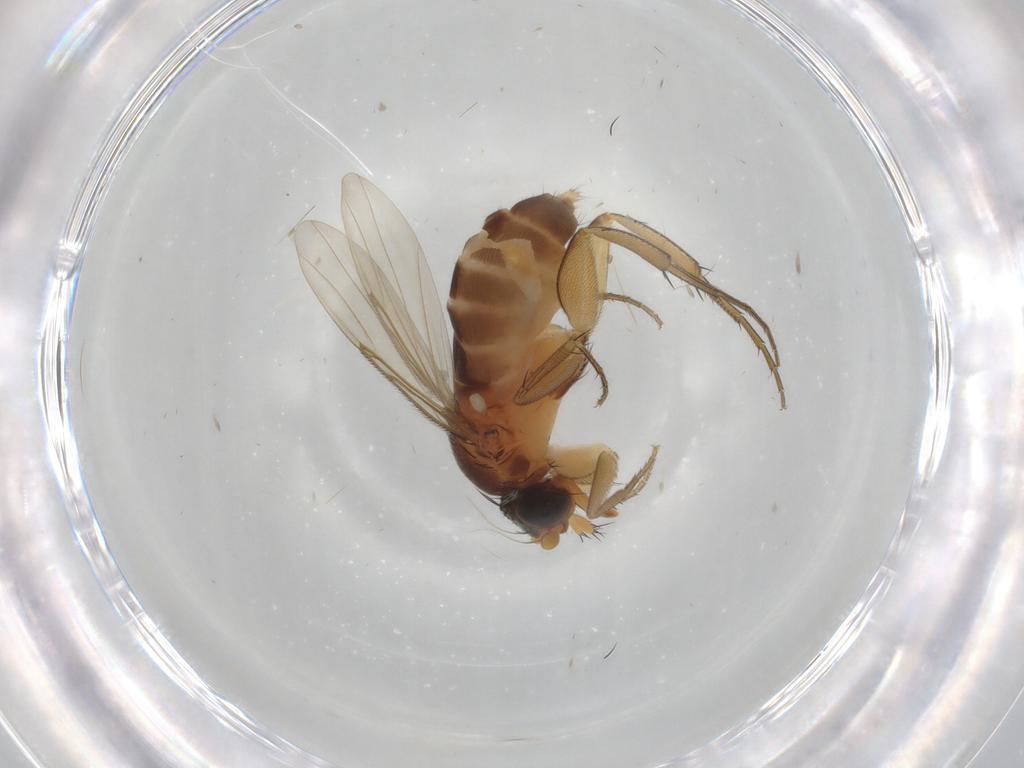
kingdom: Animalia
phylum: Arthropoda
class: Insecta
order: Diptera
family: Chironomidae
